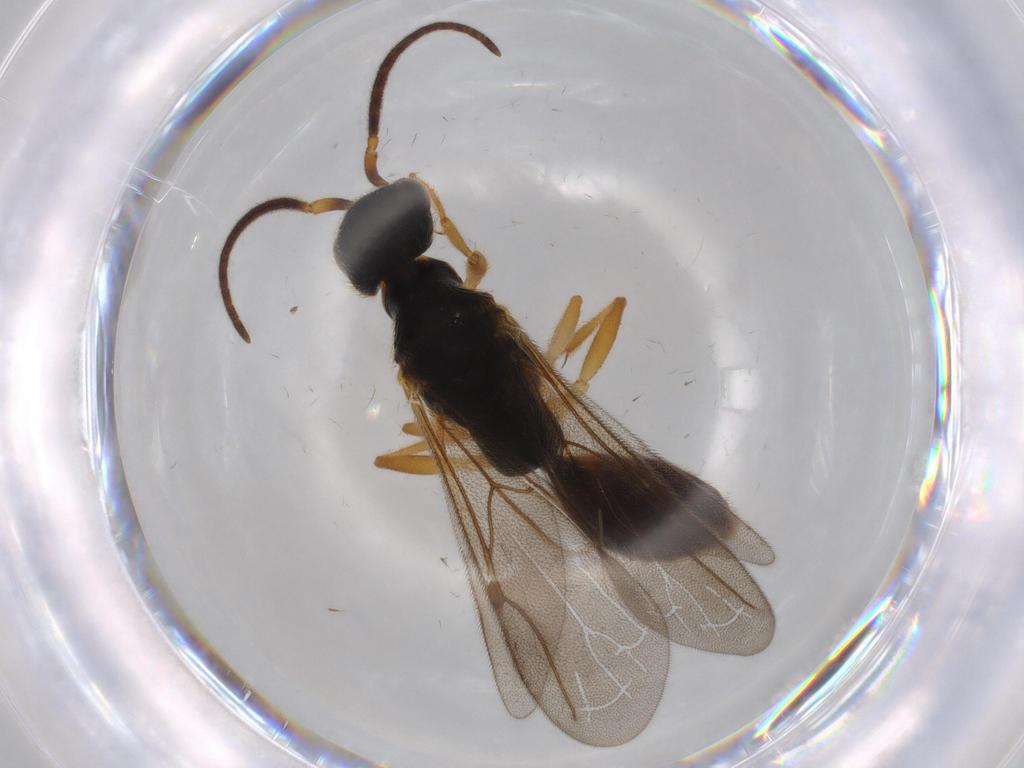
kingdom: Animalia
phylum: Arthropoda
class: Insecta
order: Hymenoptera
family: Bethylidae
